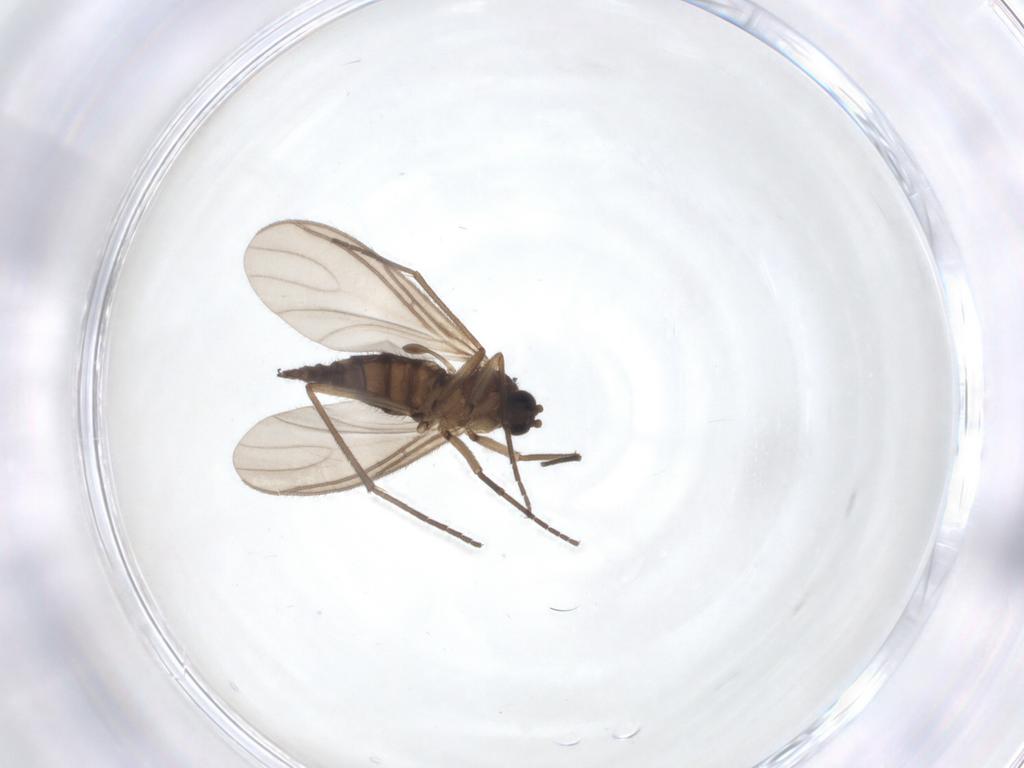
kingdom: Animalia
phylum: Arthropoda
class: Insecta
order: Diptera
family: Sciaridae
